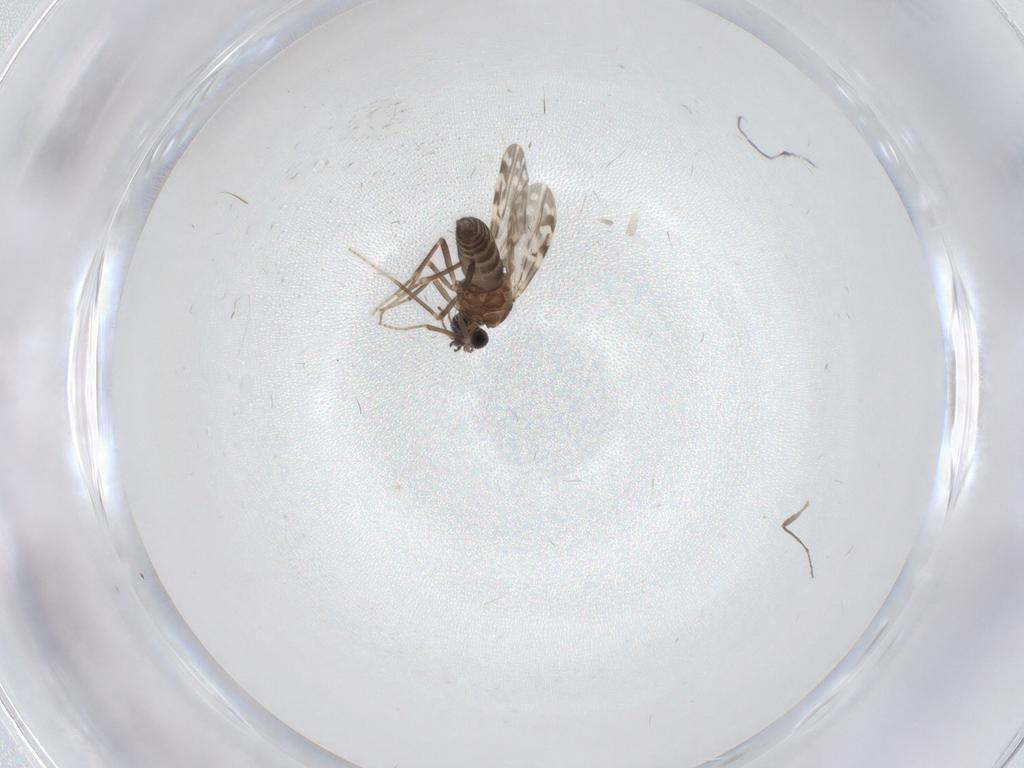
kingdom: Animalia
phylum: Arthropoda
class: Insecta
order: Diptera
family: Ceratopogonidae
